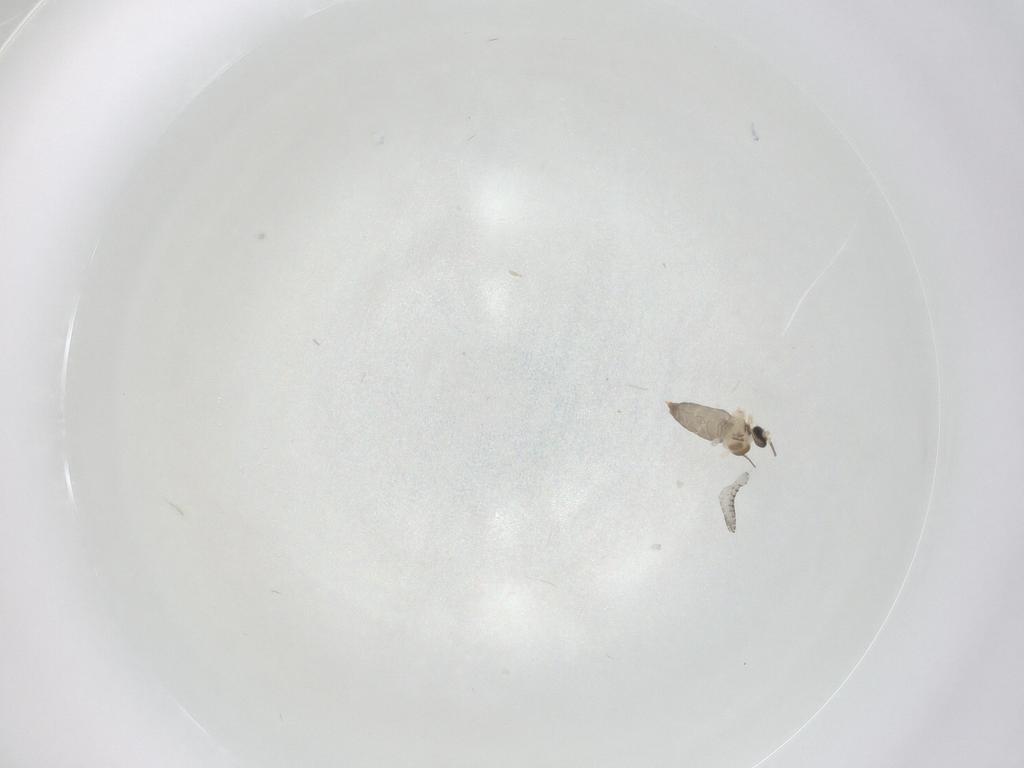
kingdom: Animalia
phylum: Arthropoda
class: Insecta
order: Diptera
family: Cecidomyiidae
